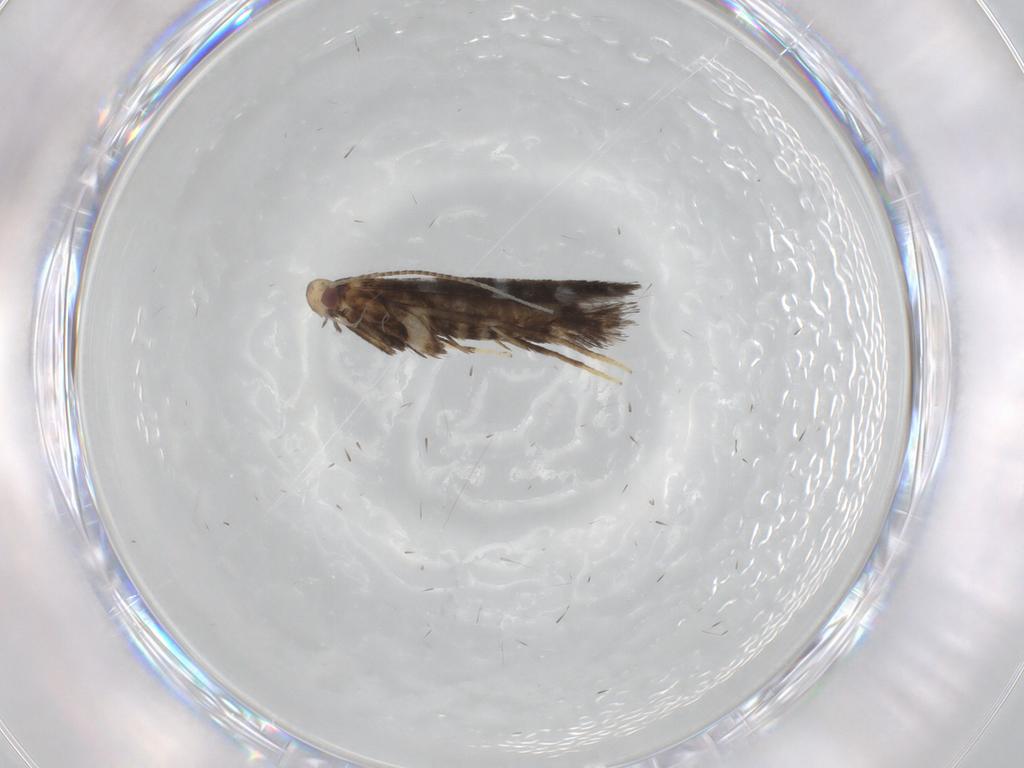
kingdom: Animalia
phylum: Arthropoda
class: Insecta
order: Lepidoptera
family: Gracillariidae
